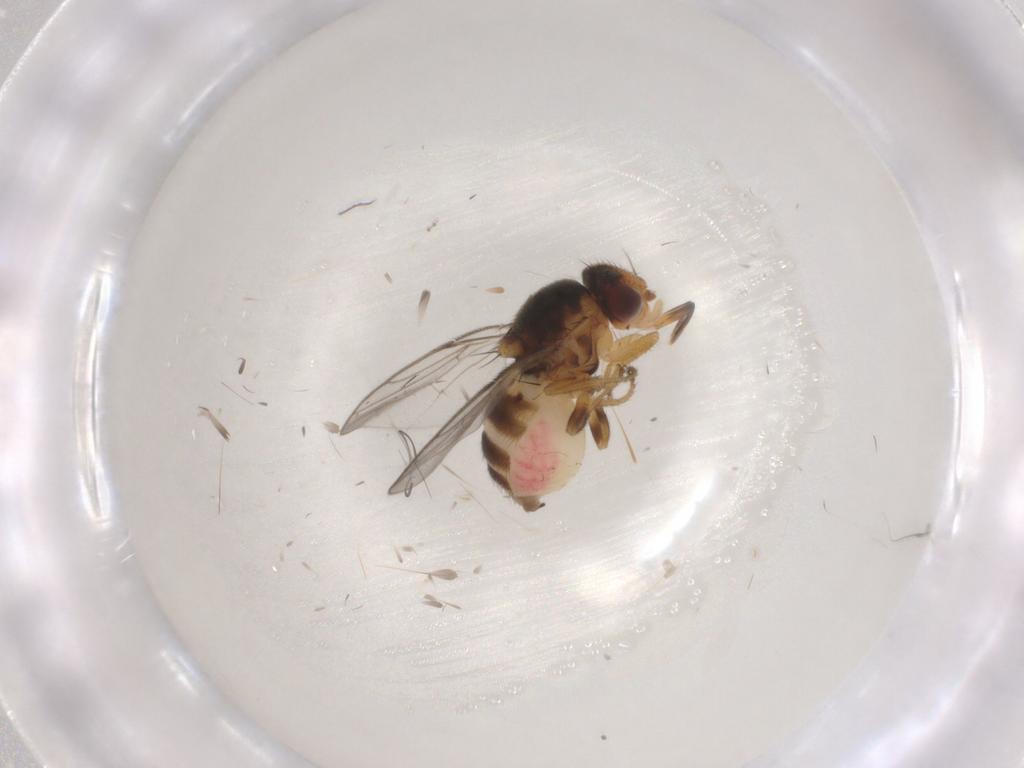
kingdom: Animalia
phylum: Arthropoda
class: Insecta
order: Diptera
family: Chloropidae
